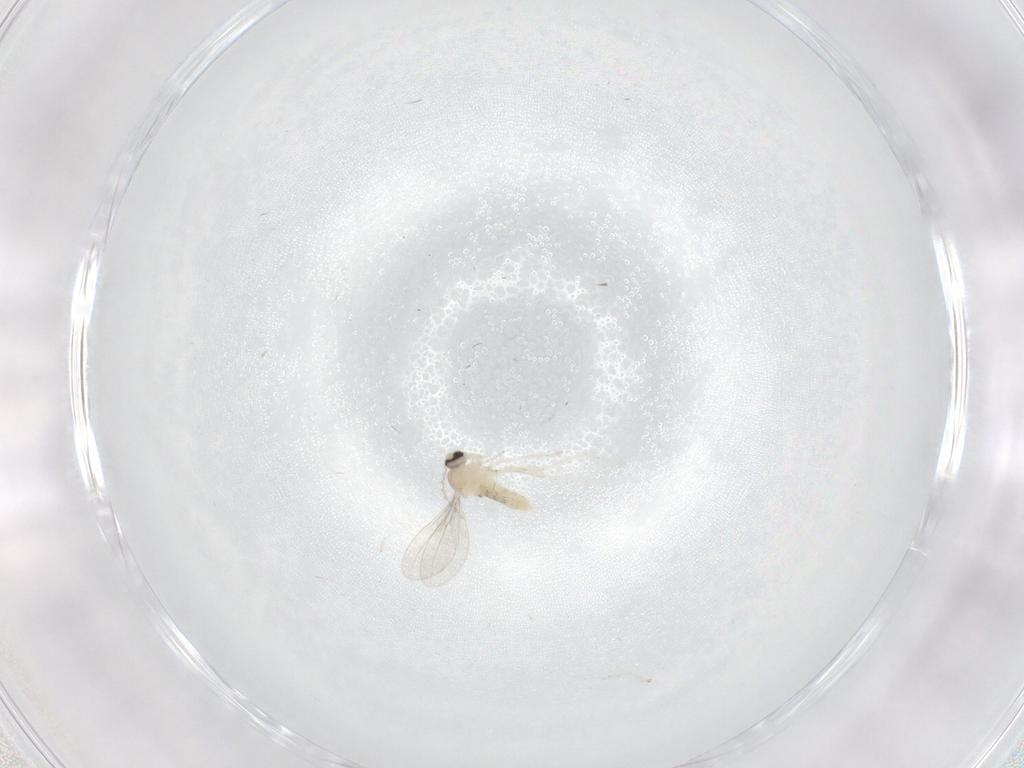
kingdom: Animalia
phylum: Arthropoda
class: Insecta
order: Diptera
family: Cecidomyiidae
